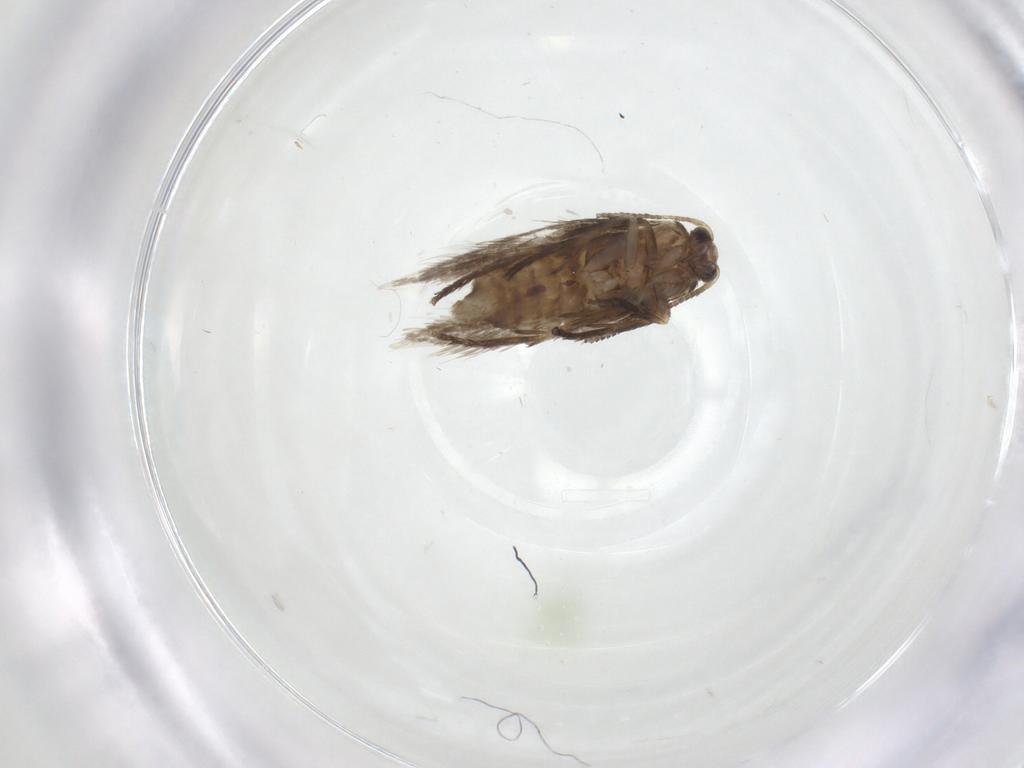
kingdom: Animalia
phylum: Arthropoda
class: Insecta
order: Lepidoptera
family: Nepticulidae
